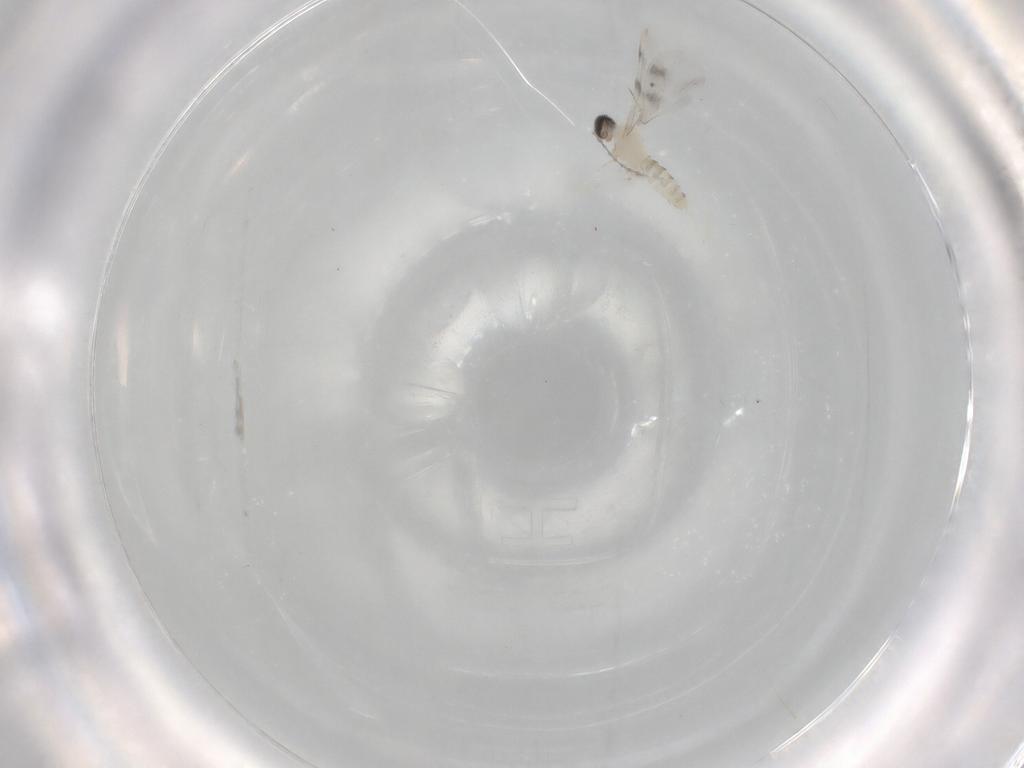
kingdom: Animalia
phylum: Arthropoda
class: Insecta
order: Diptera
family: Cecidomyiidae
